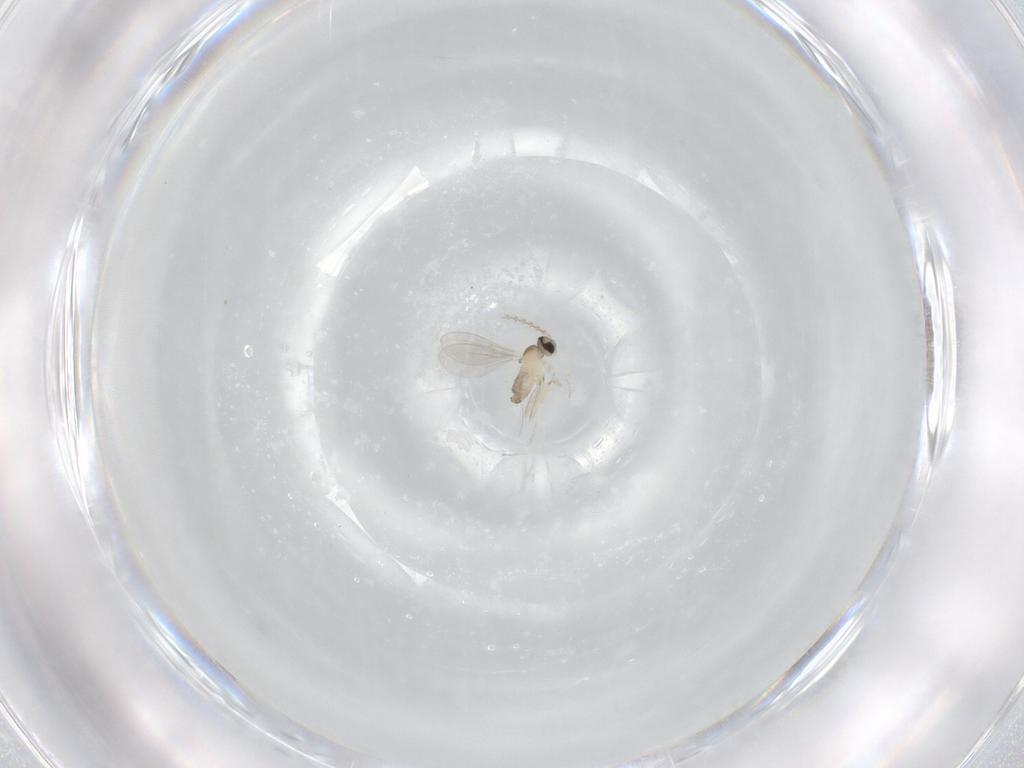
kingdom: Animalia
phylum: Arthropoda
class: Insecta
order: Diptera
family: Cecidomyiidae
